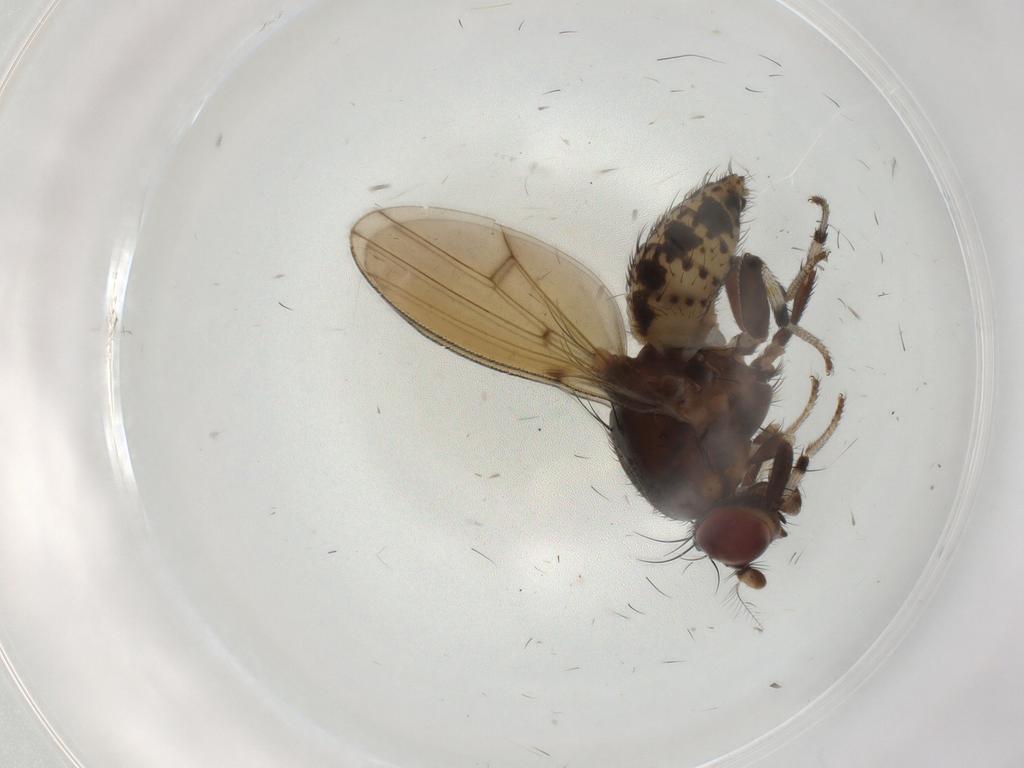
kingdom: Animalia
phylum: Arthropoda
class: Insecta
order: Diptera
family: Phoridae
